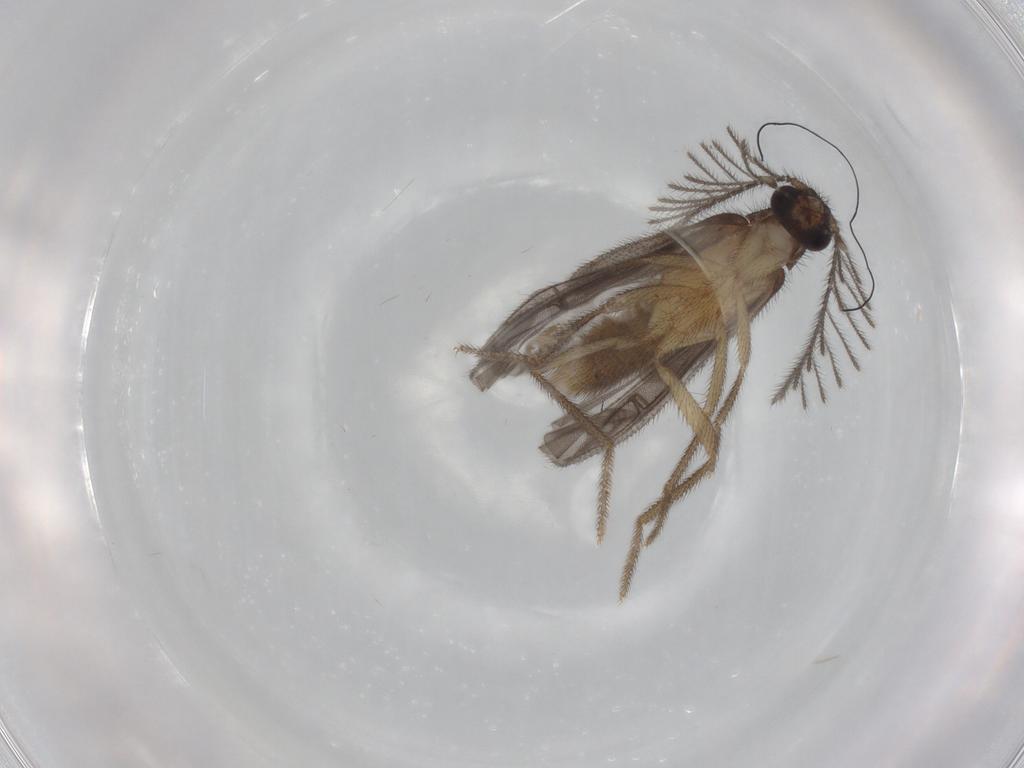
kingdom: Animalia
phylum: Arthropoda
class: Insecta
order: Coleoptera
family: Phengodidae
